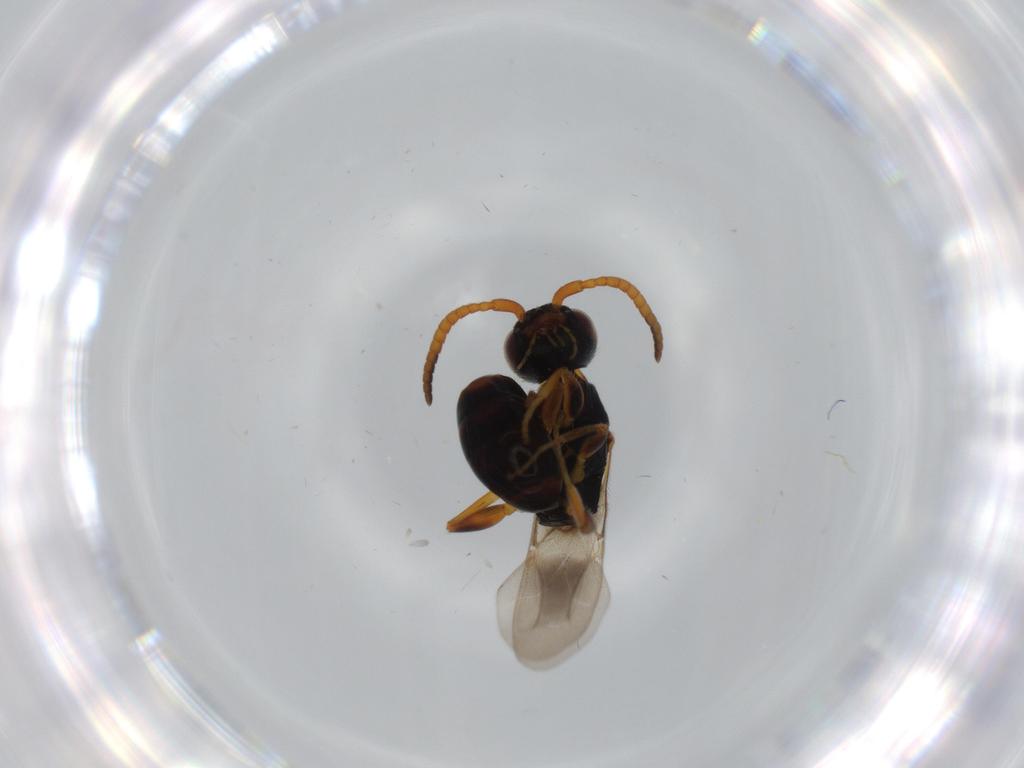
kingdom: Animalia
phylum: Arthropoda
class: Insecta
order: Hymenoptera
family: Bethylidae
